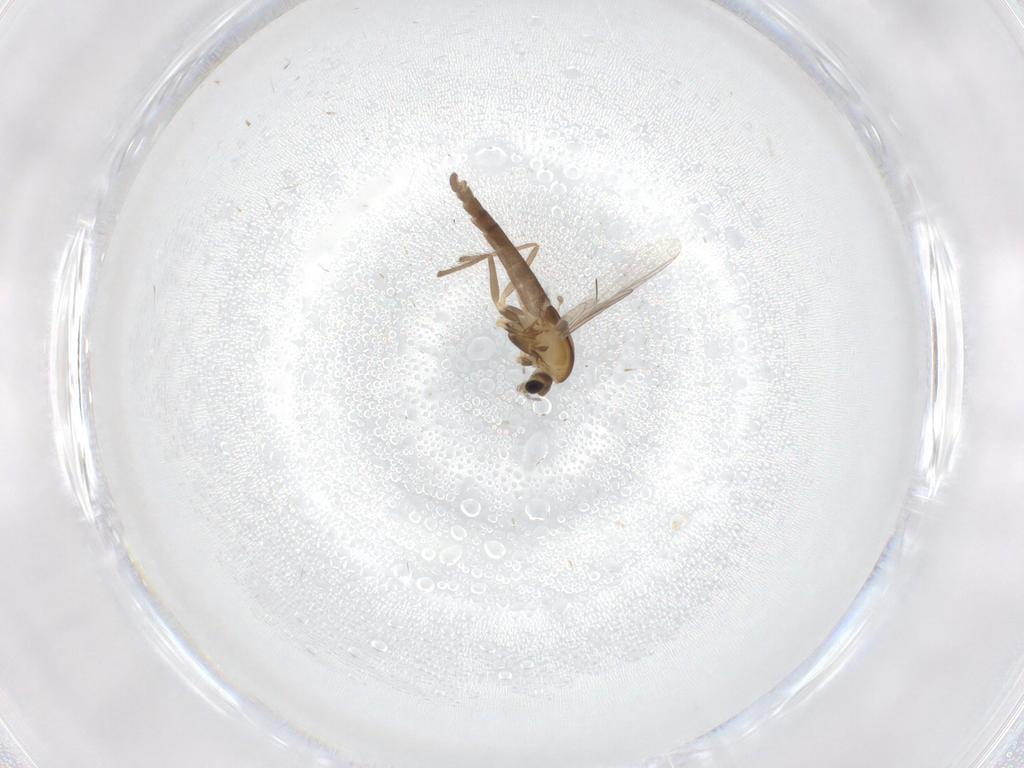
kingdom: Animalia
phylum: Arthropoda
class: Insecta
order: Diptera
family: Chironomidae
